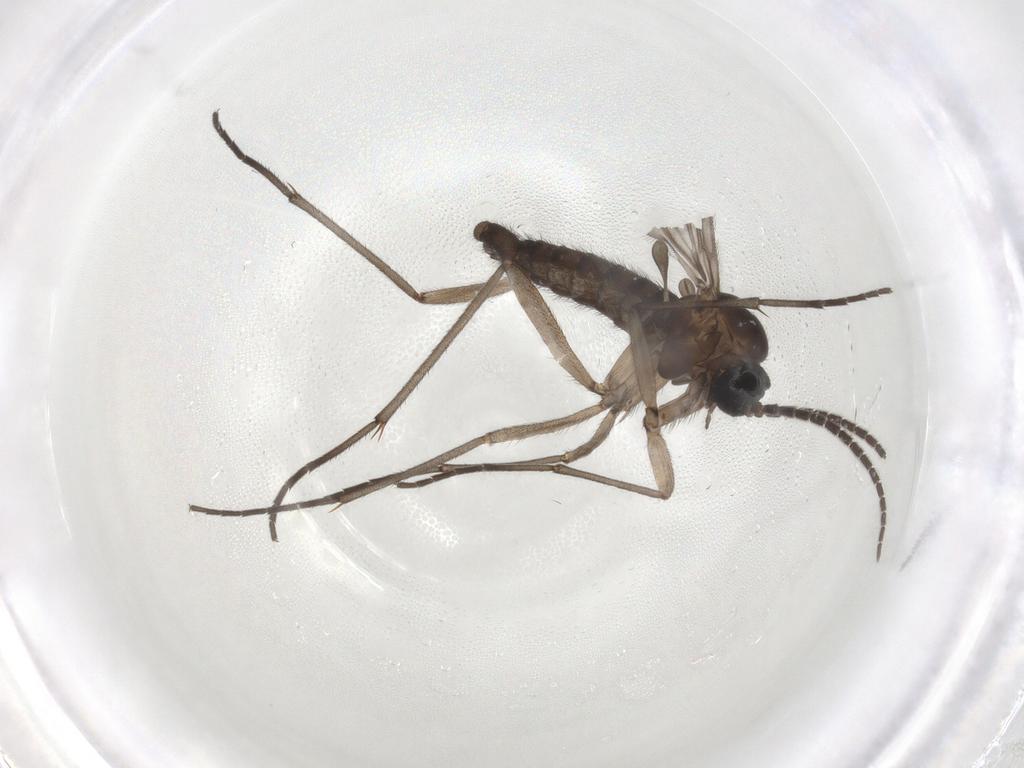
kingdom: Animalia
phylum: Arthropoda
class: Insecta
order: Diptera
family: Sciaridae
